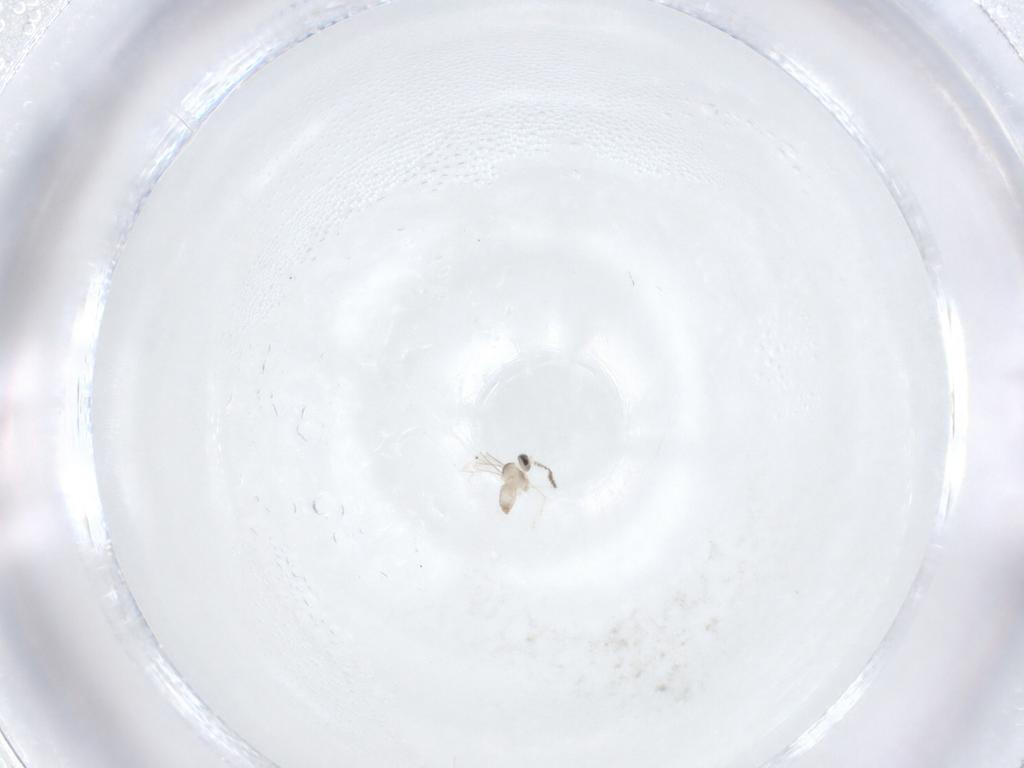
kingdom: Animalia
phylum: Arthropoda
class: Insecta
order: Diptera
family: Cecidomyiidae
